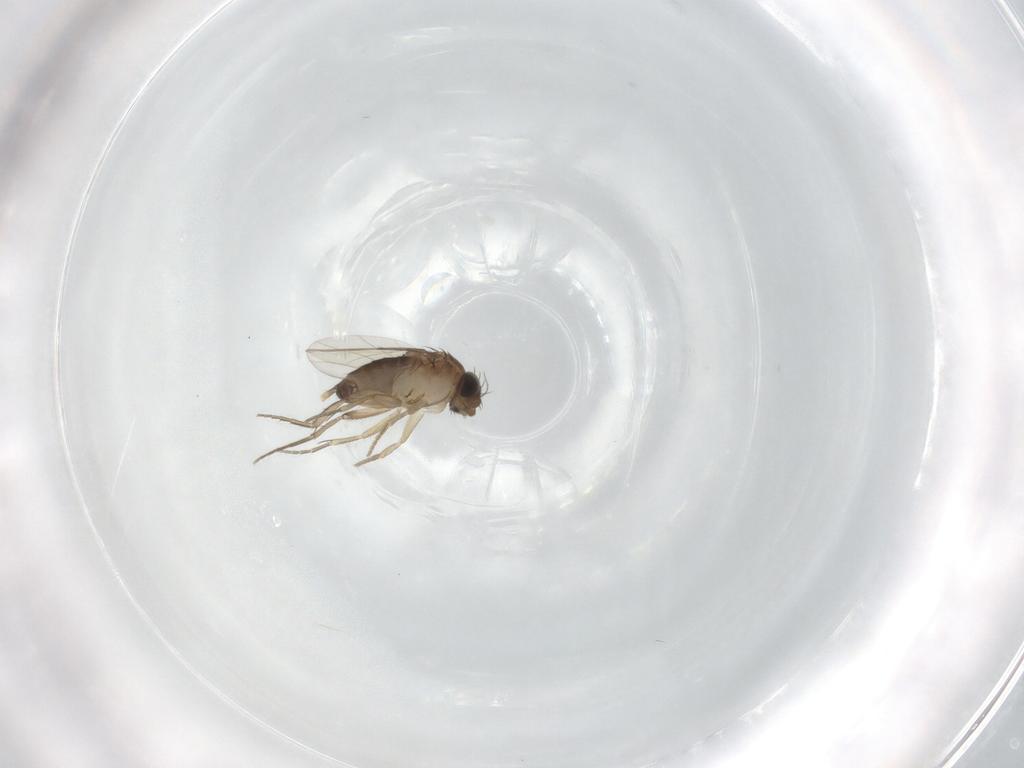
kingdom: Animalia
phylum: Arthropoda
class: Insecta
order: Diptera
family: Phoridae
